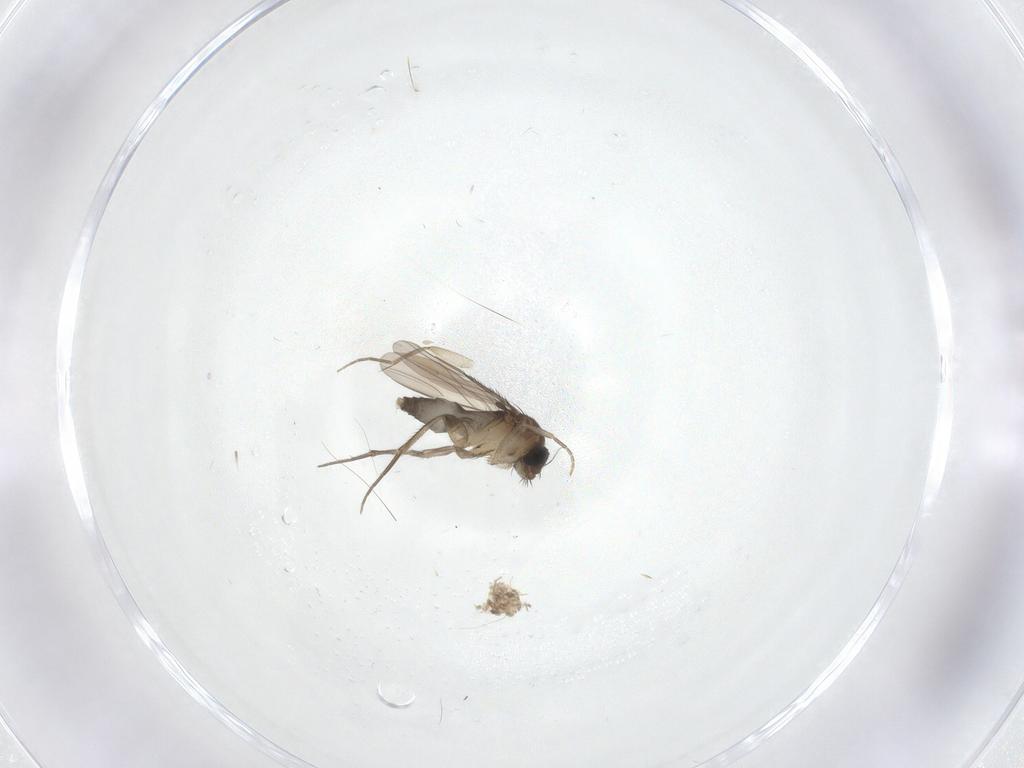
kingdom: Animalia
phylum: Arthropoda
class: Insecta
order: Diptera
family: Phoridae
